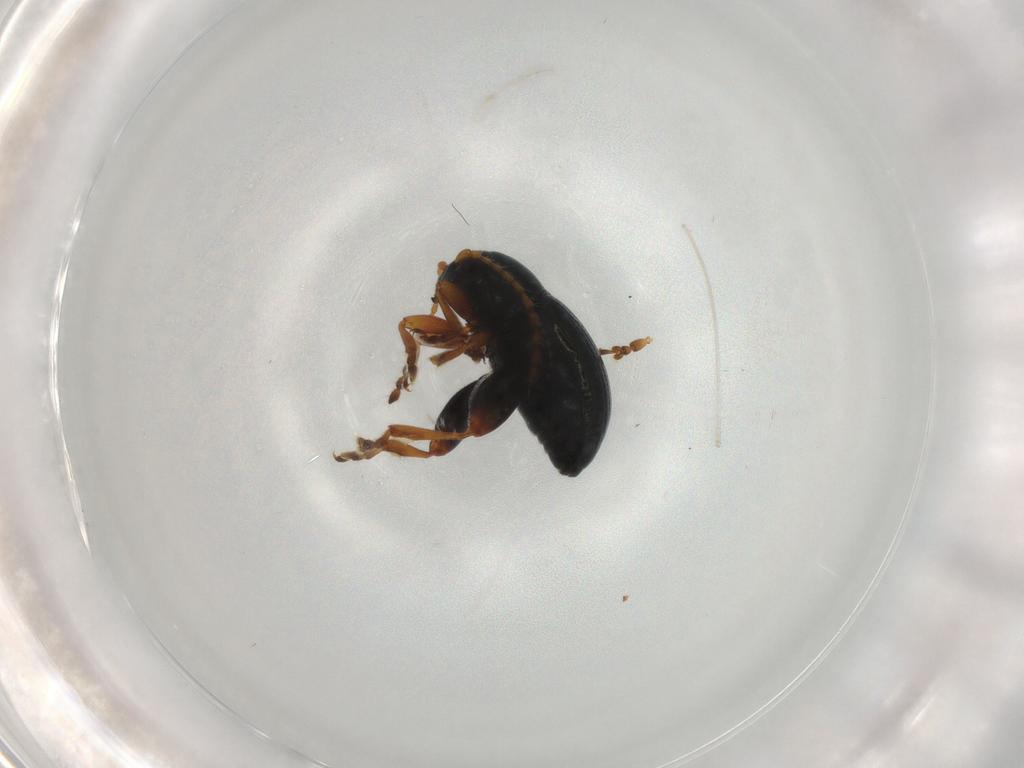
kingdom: Animalia
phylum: Arthropoda
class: Insecta
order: Coleoptera
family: Chrysomelidae
